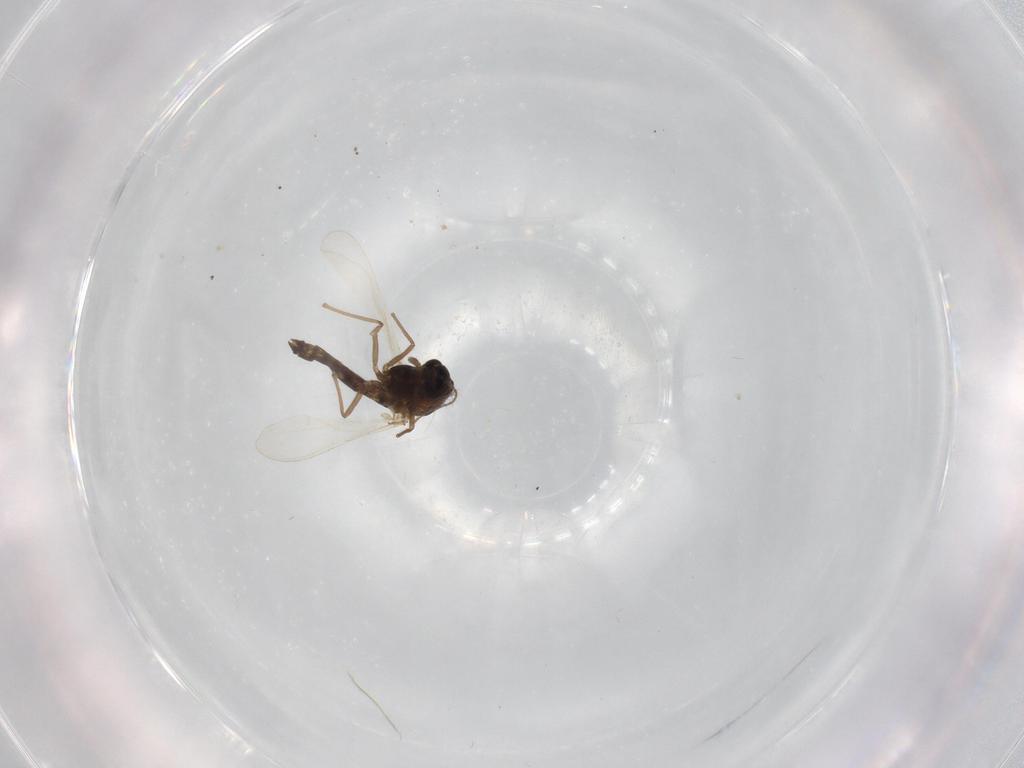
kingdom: Animalia
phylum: Arthropoda
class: Insecta
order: Diptera
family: Chironomidae
